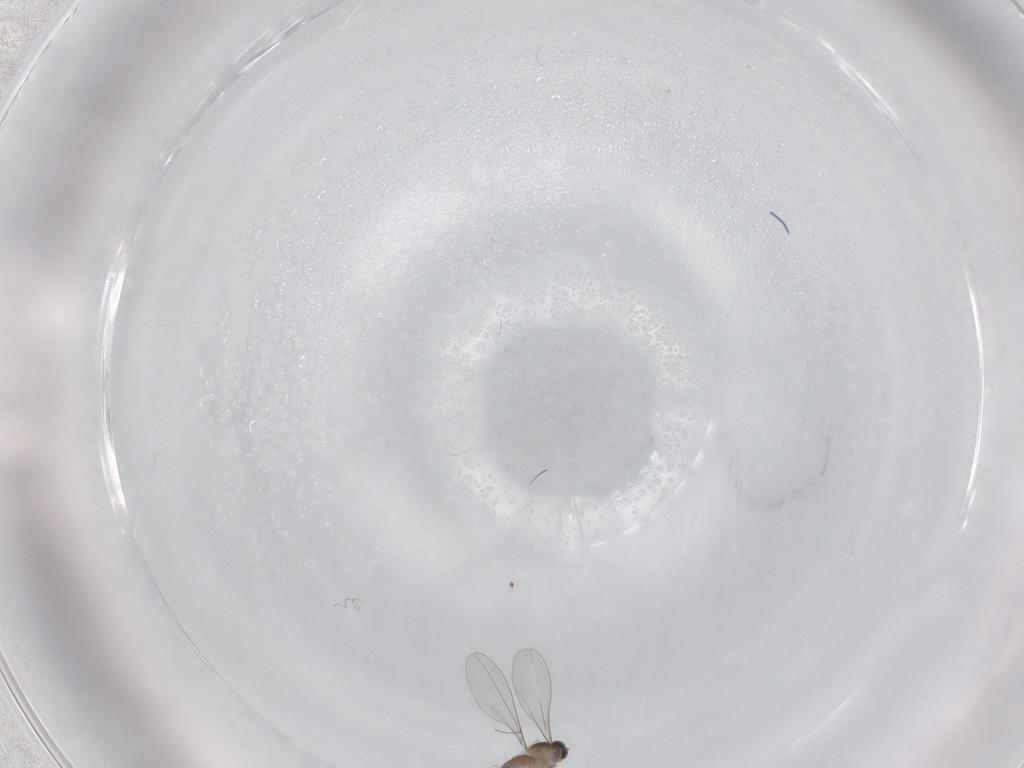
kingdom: Animalia
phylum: Arthropoda
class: Insecta
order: Diptera
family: Cecidomyiidae
